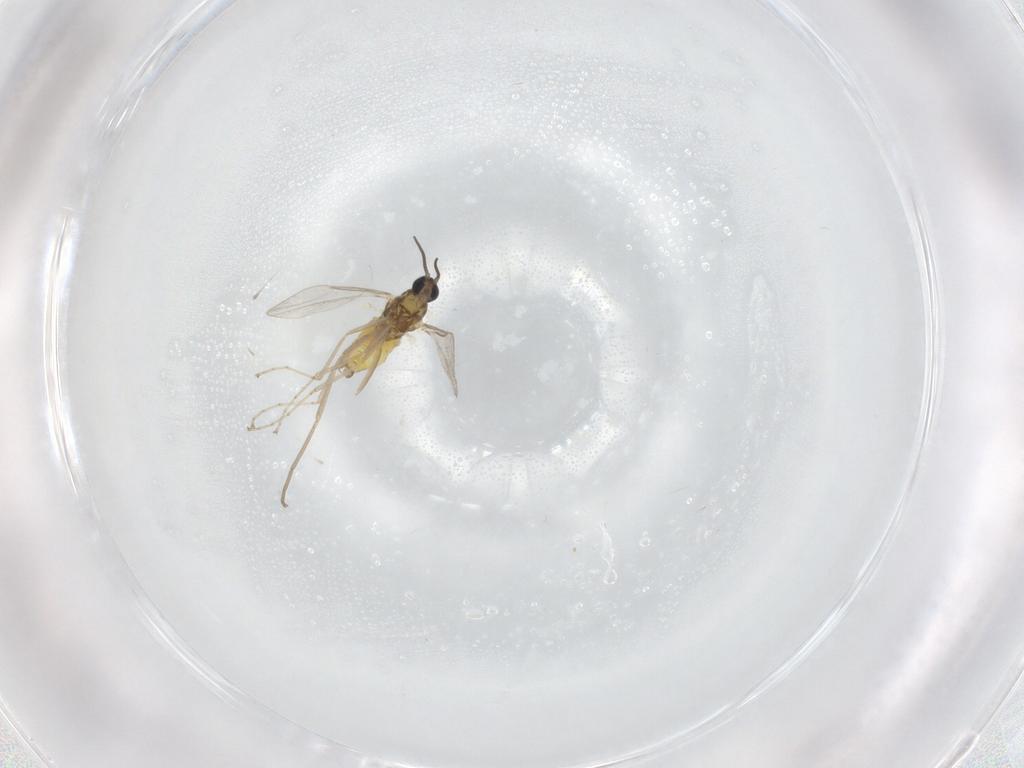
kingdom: Animalia
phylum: Arthropoda
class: Insecta
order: Diptera
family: Cecidomyiidae
